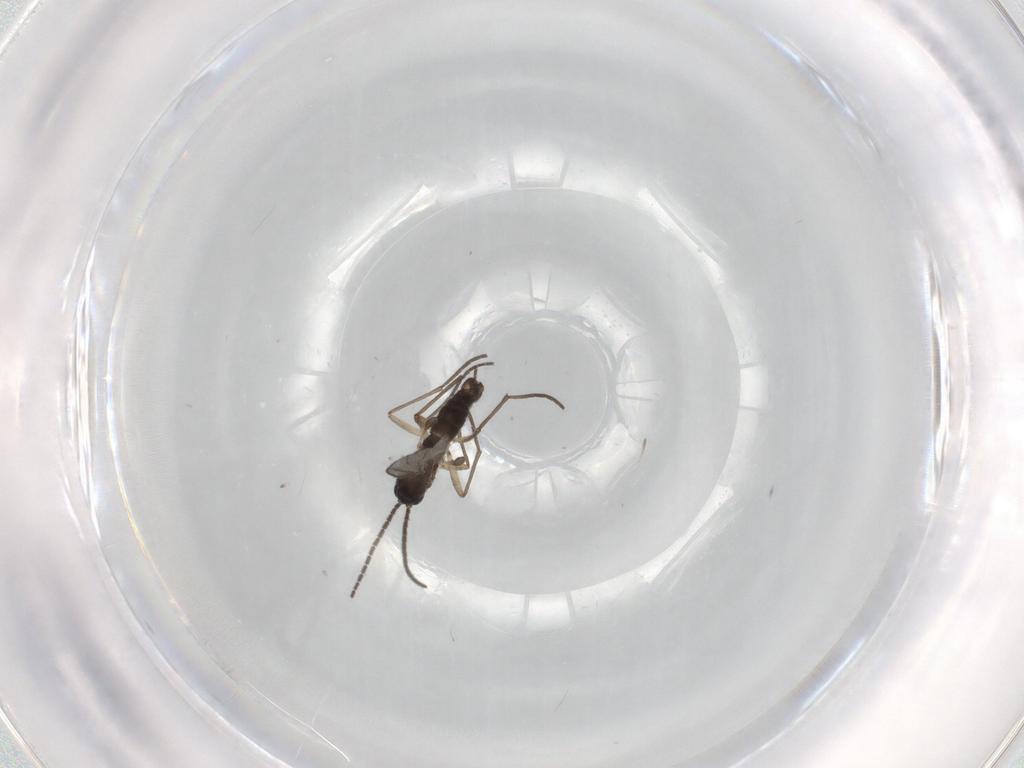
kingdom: Animalia
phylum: Arthropoda
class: Insecta
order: Diptera
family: Sciaridae
